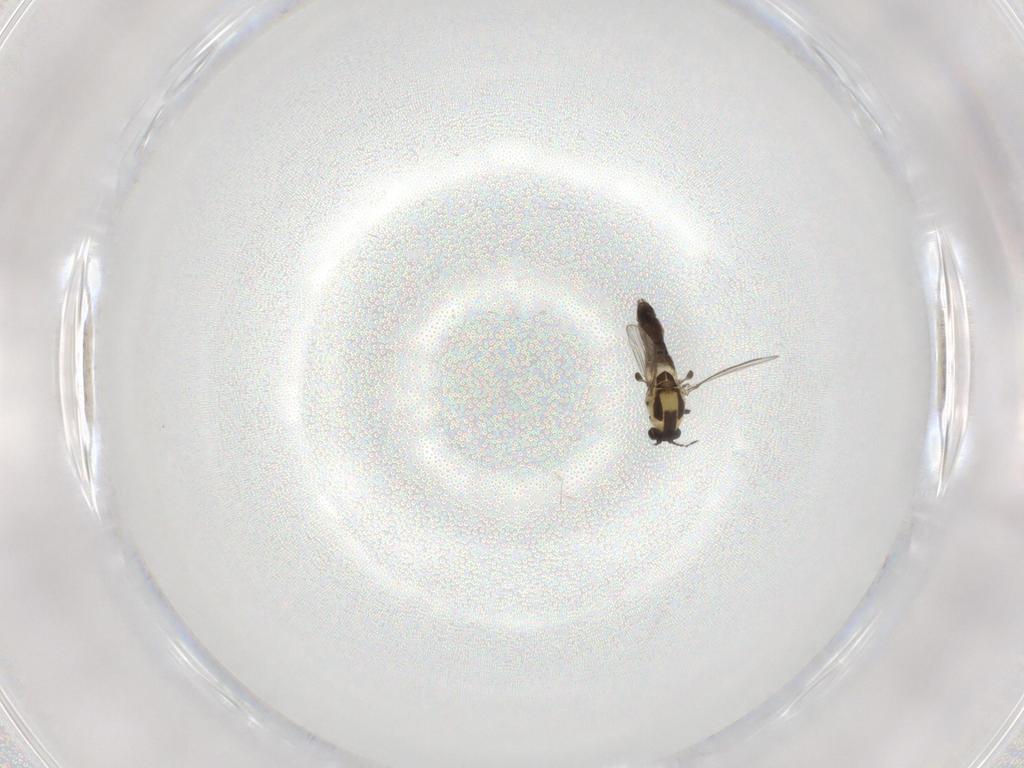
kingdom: Animalia
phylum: Arthropoda
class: Insecta
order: Diptera
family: Chironomidae
